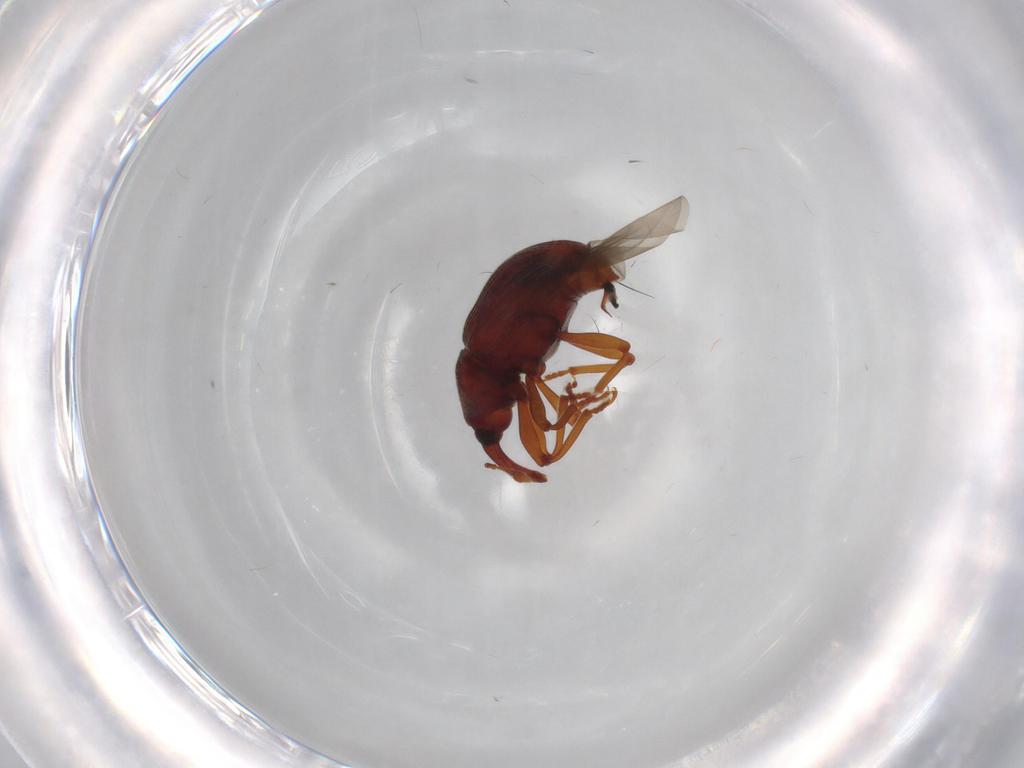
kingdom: Animalia
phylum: Arthropoda
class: Insecta
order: Coleoptera
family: Curculionidae
